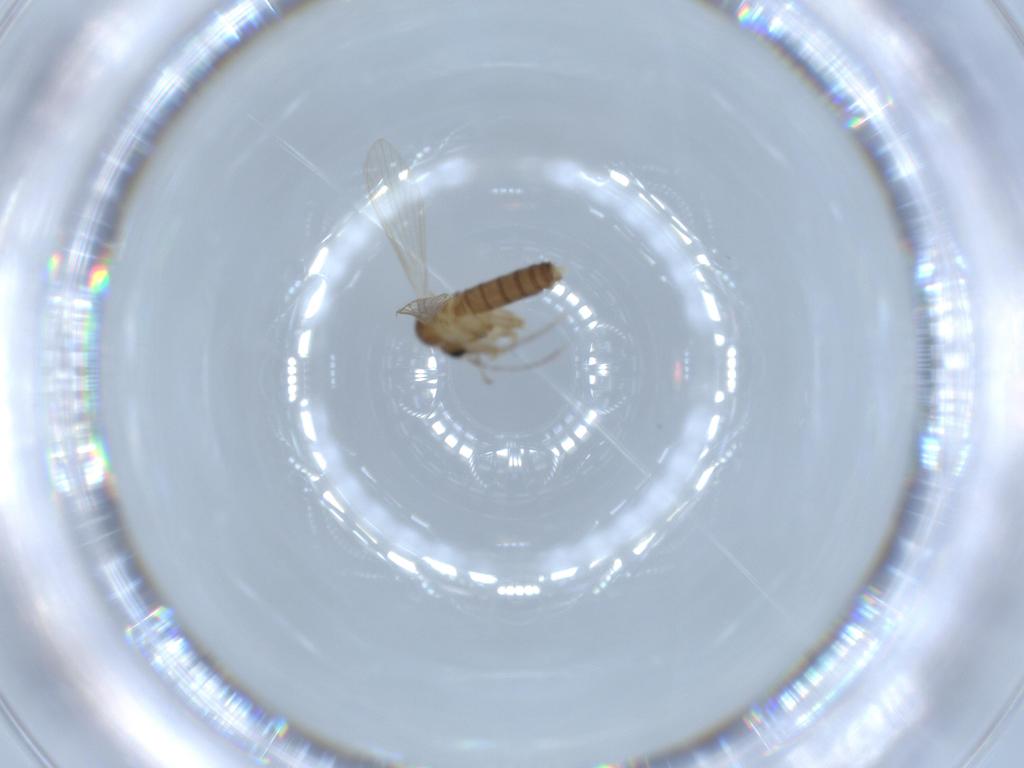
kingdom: Animalia
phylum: Arthropoda
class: Insecta
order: Diptera
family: Psychodidae
